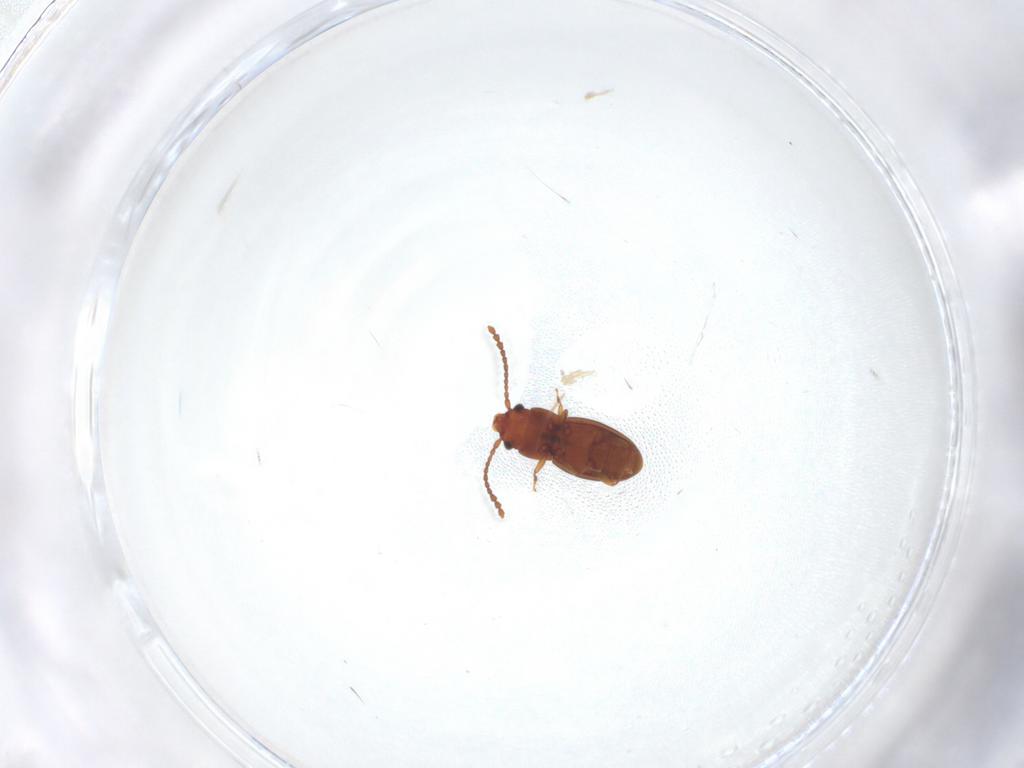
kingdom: Animalia
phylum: Arthropoda
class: Insecta
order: Coleoptera
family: Laemophloeidae
